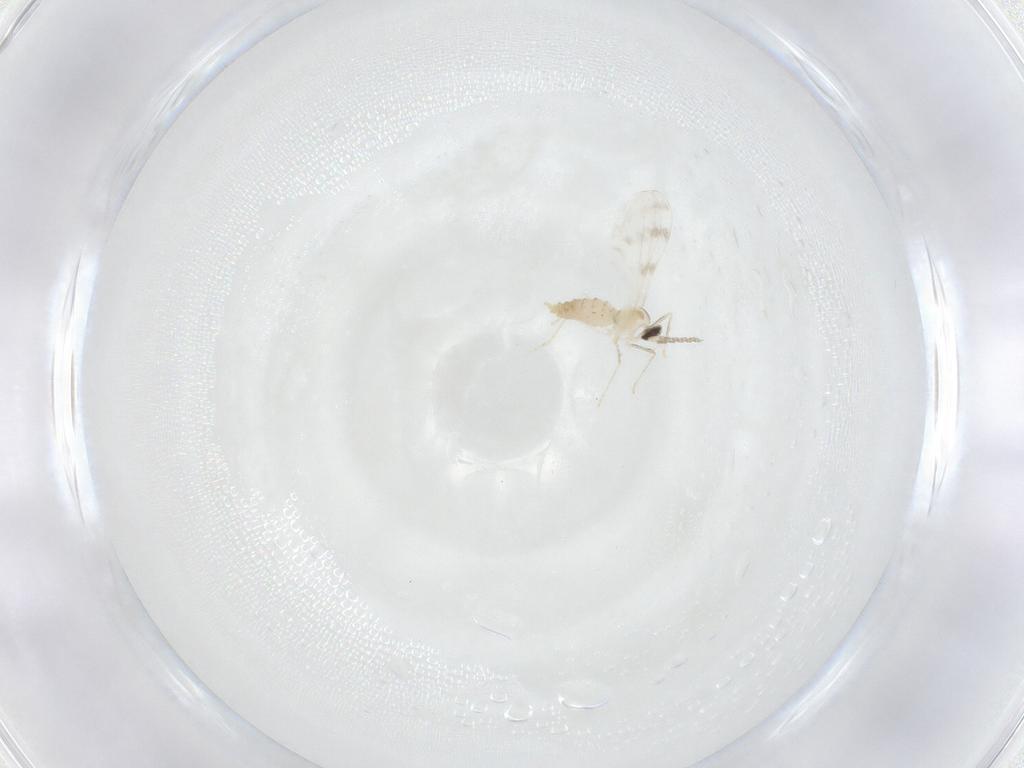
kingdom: Animalia
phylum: Arthropoda
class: Insecta
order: Diptera
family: Cecidomyiidae
